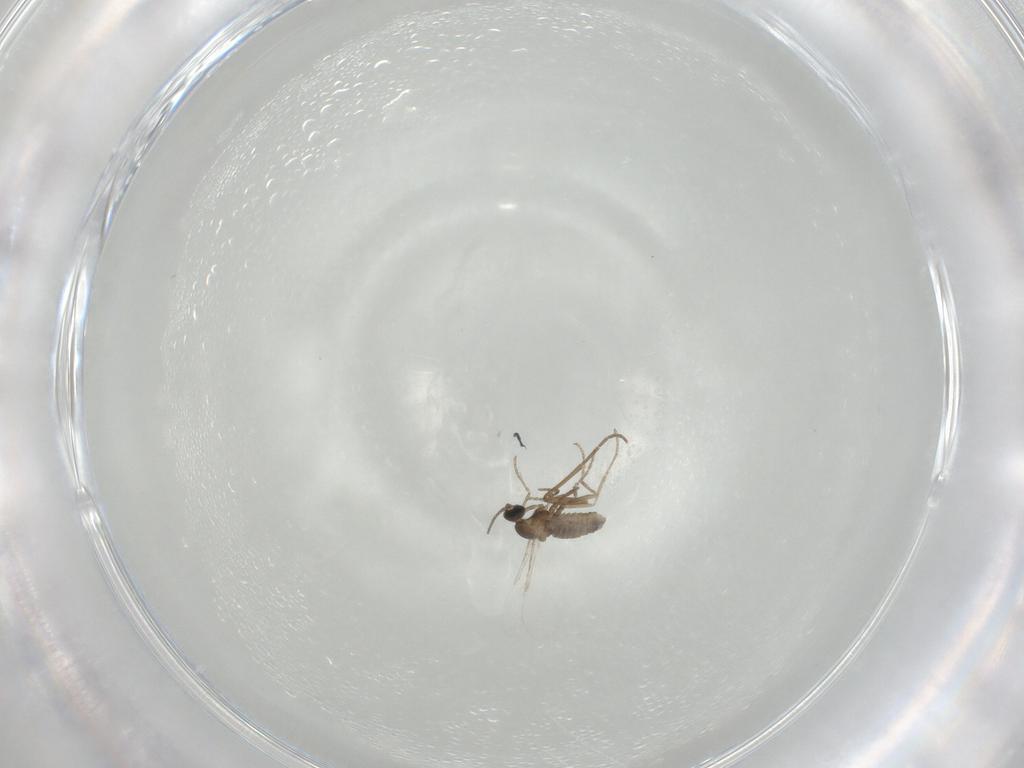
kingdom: Animalia
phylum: Arthropoda
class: Insecta
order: Diptera
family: Cecidomyiidae
